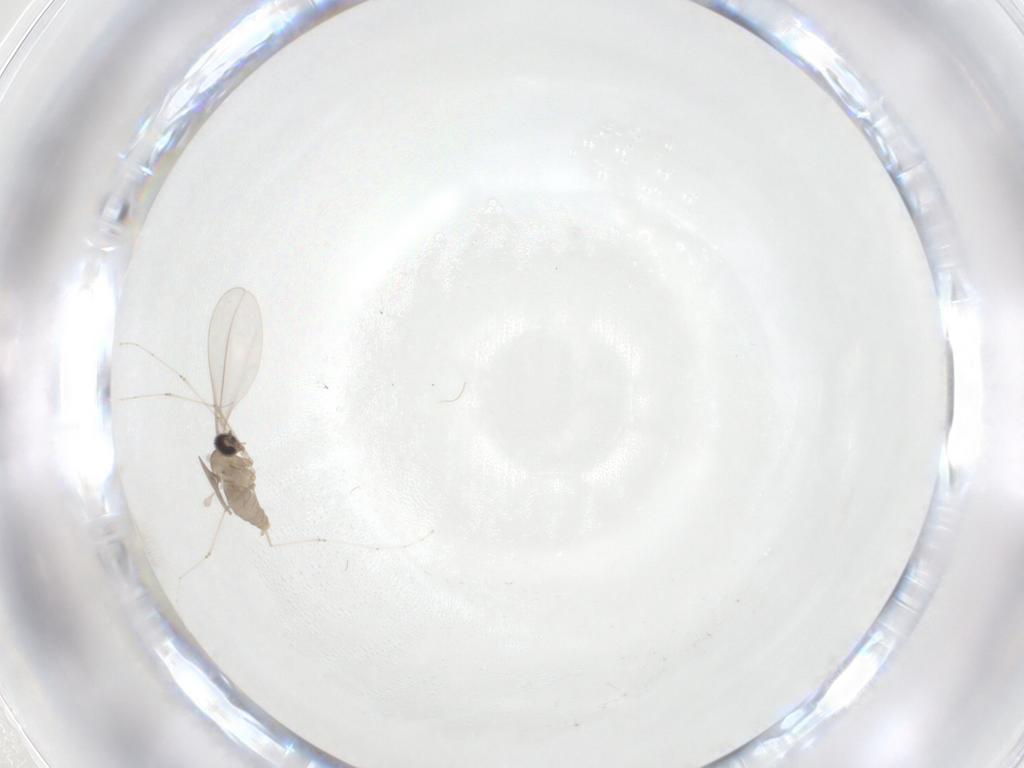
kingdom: Animalia
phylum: Arthropoda
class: Insecta
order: Diptera
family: Cecidomyiidae
